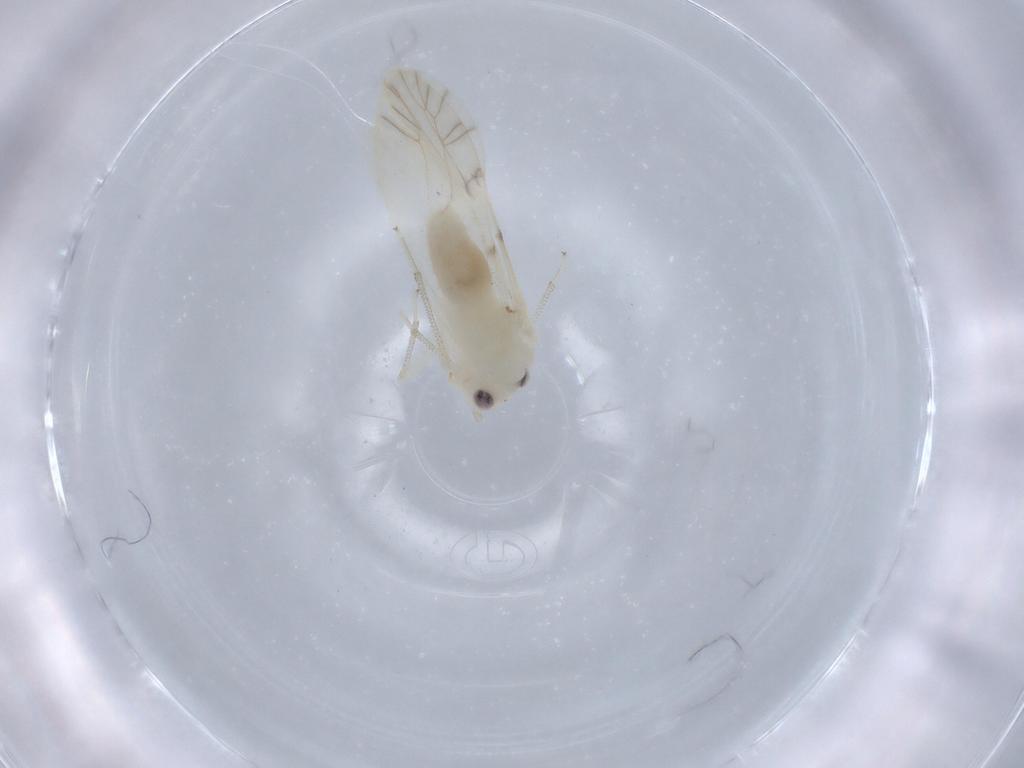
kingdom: Animalia
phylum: Arthropoda
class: Insecta
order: Psocodea
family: Caeciliusidae
